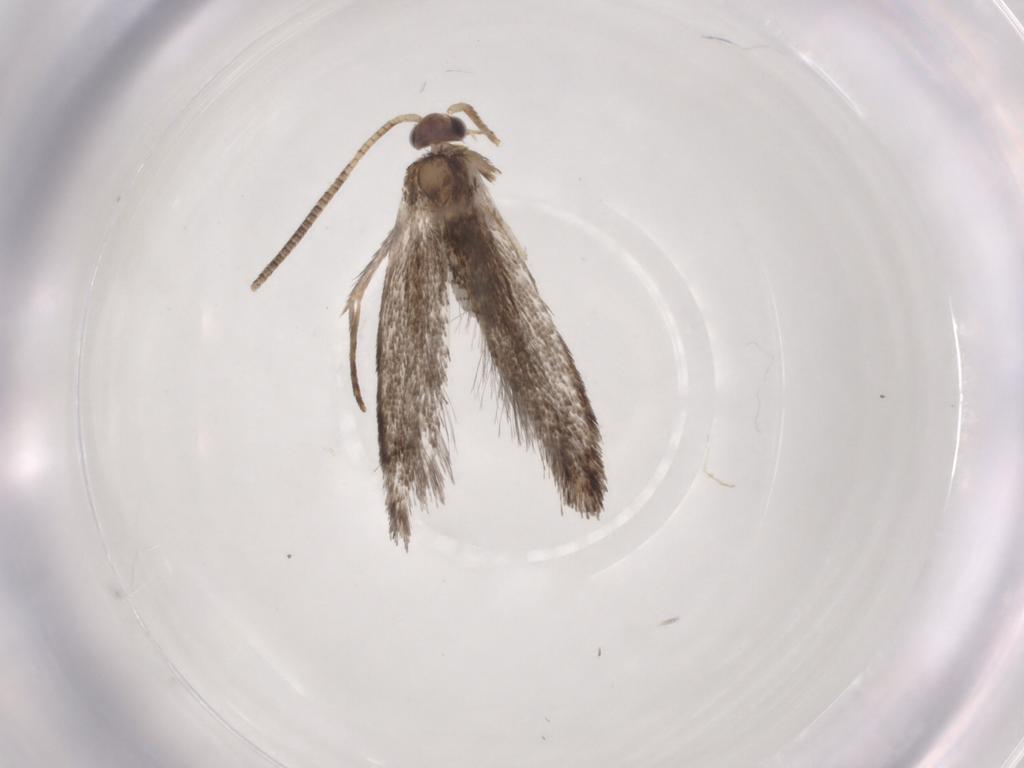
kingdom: Animalia
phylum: Arthropoda
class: Insecta
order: Lepidoptera
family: Tineidae
